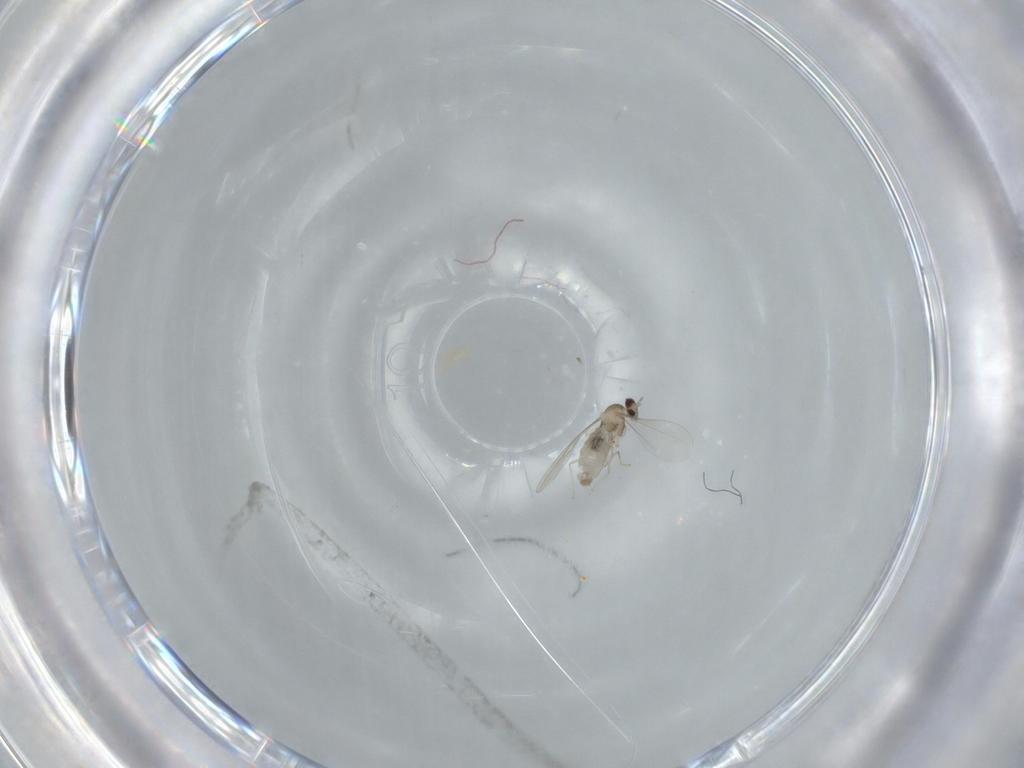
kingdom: Animalia
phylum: Arthropoda
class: Insecta
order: Diptera
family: Cecidomyiidae
